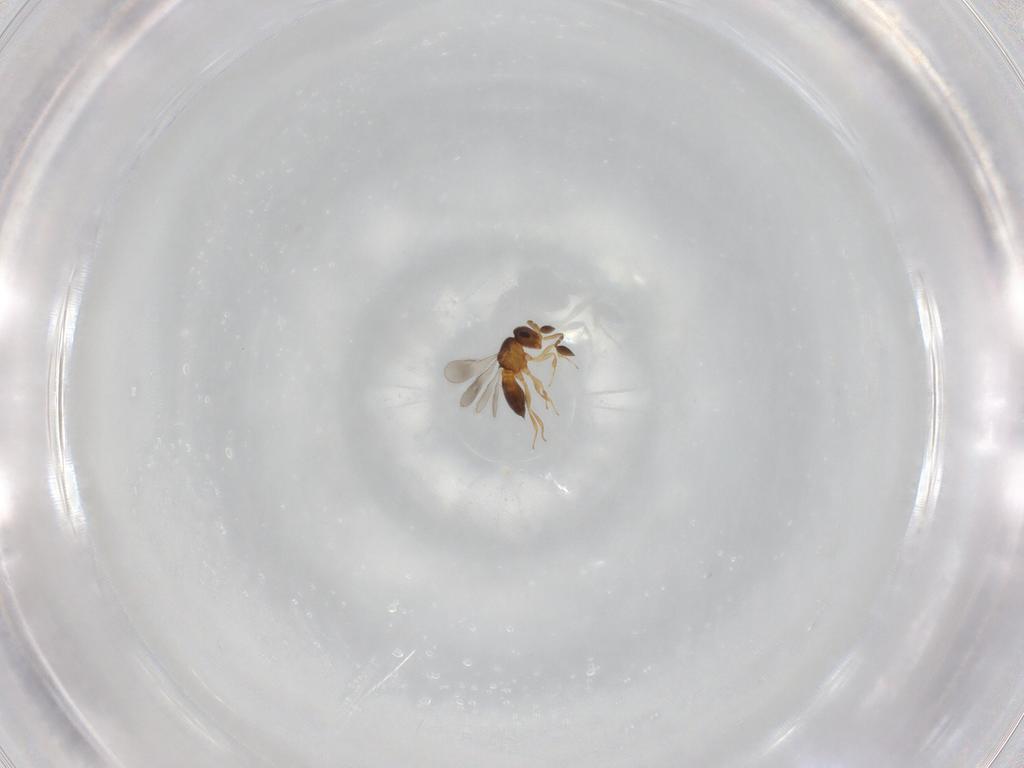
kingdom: Animalia
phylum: Arthropoda
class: Insecta
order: Hymenoptera
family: Scelionidae
